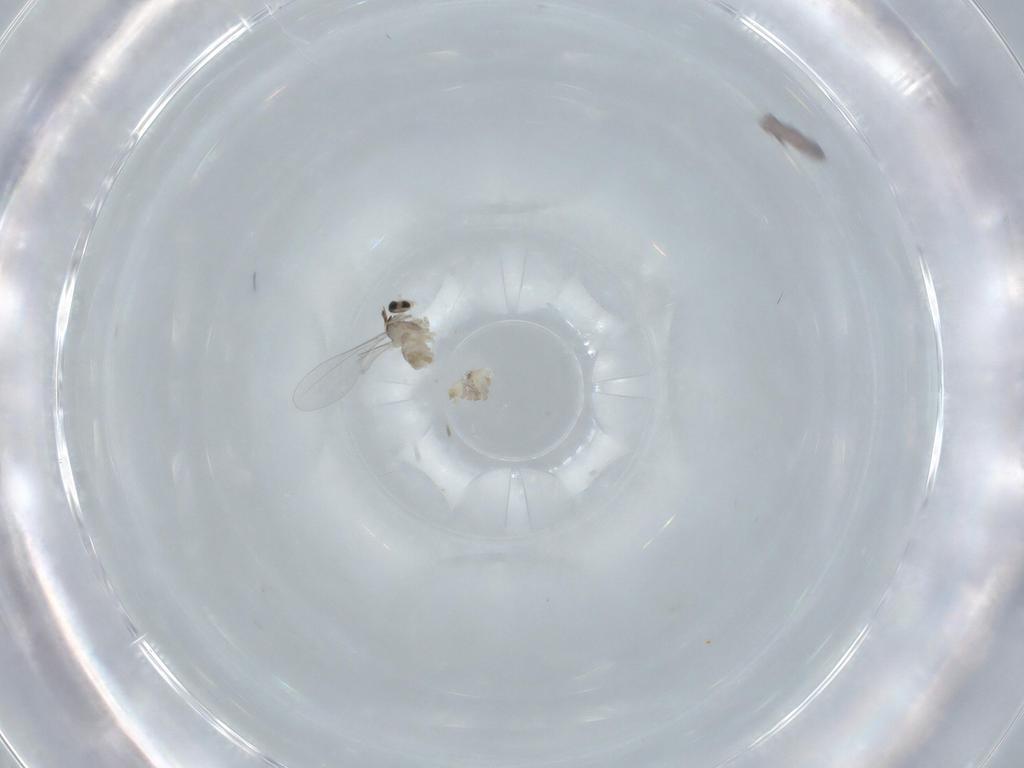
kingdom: Animalia
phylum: Arthropoda
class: Insecta
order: Diptera
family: Cecidomyiidae
